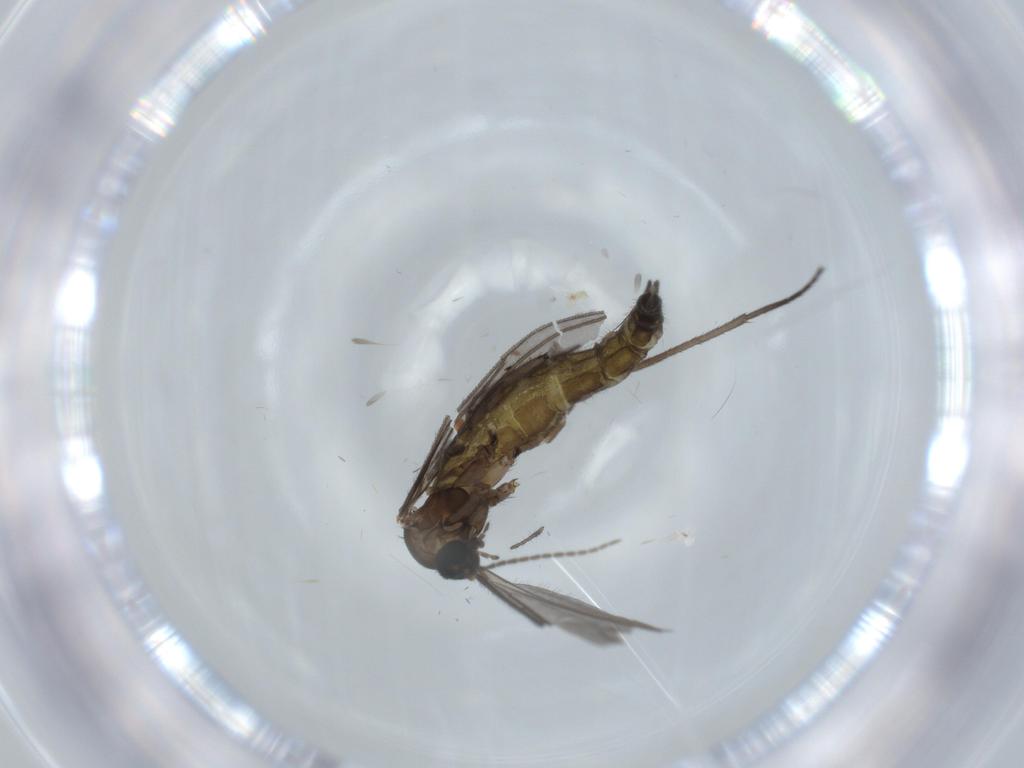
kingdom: Animalia
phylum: Arthropoda
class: Insecta
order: Diptera
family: Sciaridae
